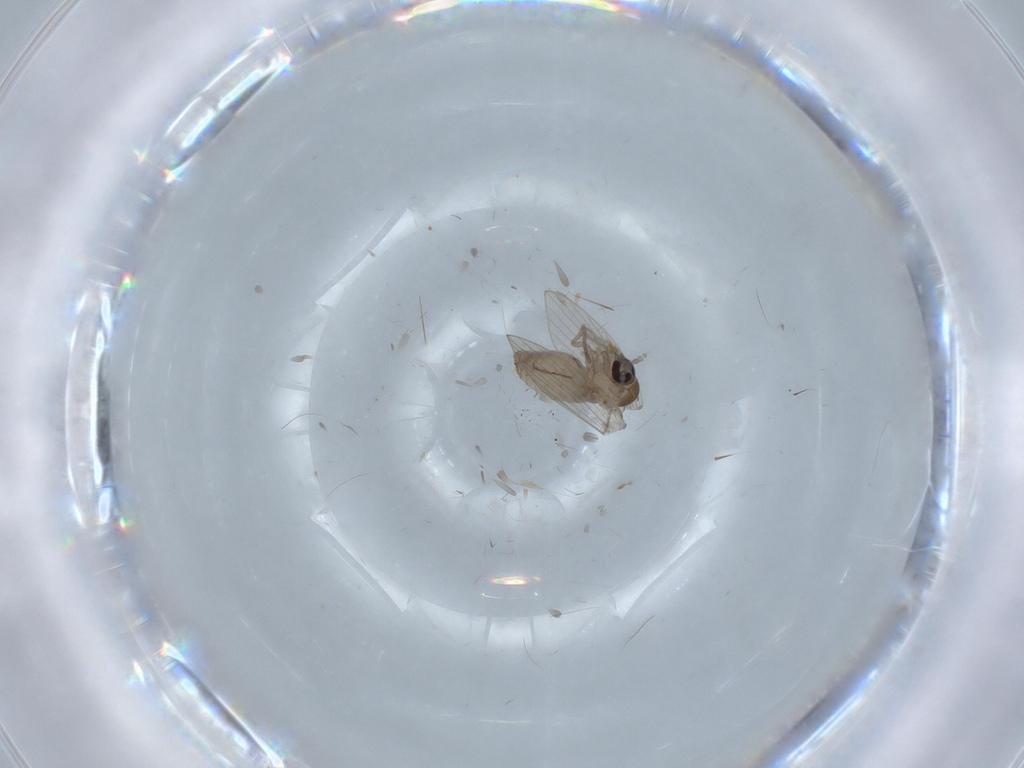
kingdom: Animalia
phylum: Arthropoda
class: Insecta
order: Diptera
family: Psychodidae
